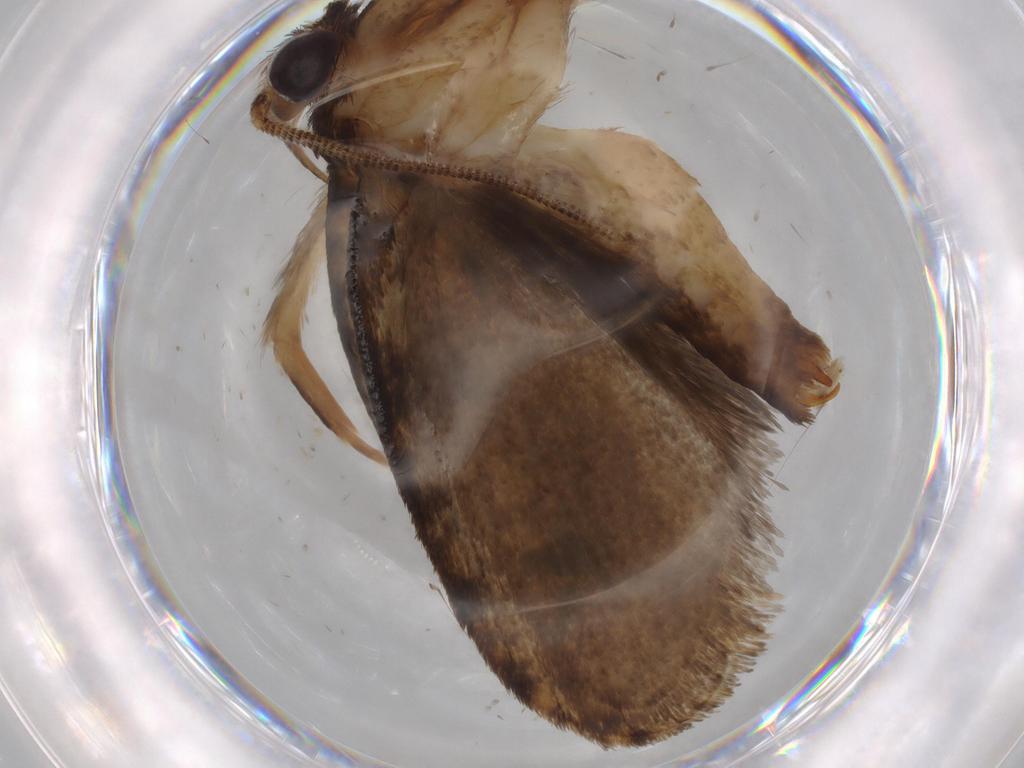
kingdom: Animalia
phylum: Arthropoda
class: Insecta
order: Lepidoptera
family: Tineidae
